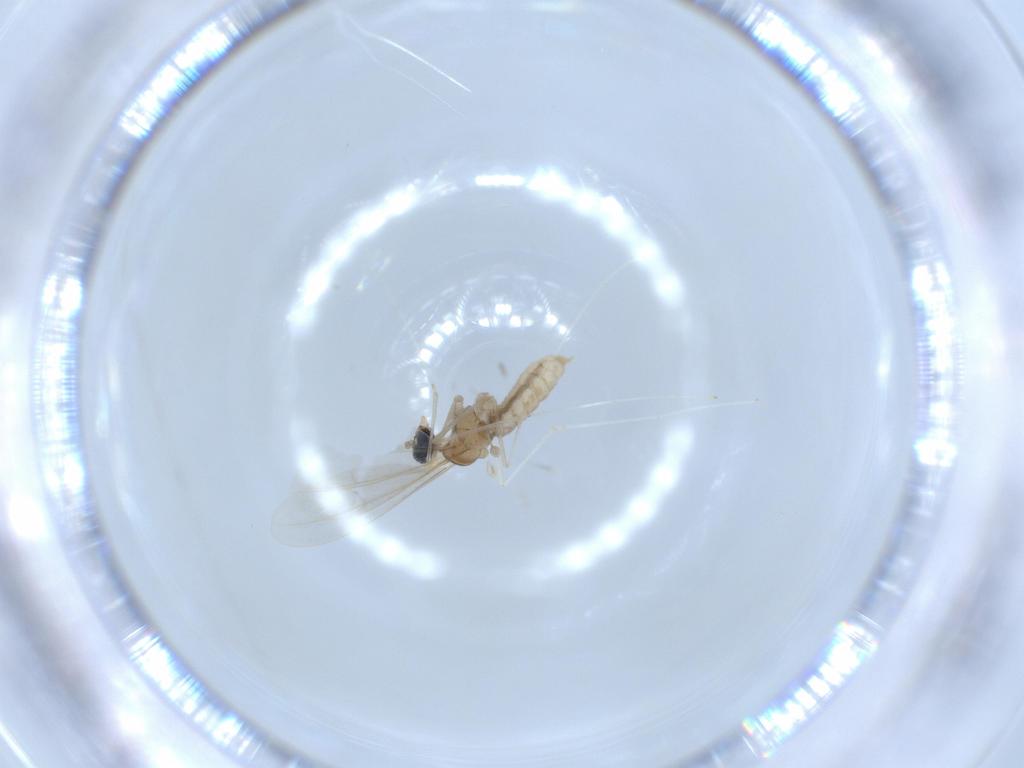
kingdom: Animalia
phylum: Arthropoda
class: Insecta
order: Diptera
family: Cecidomyiidae
